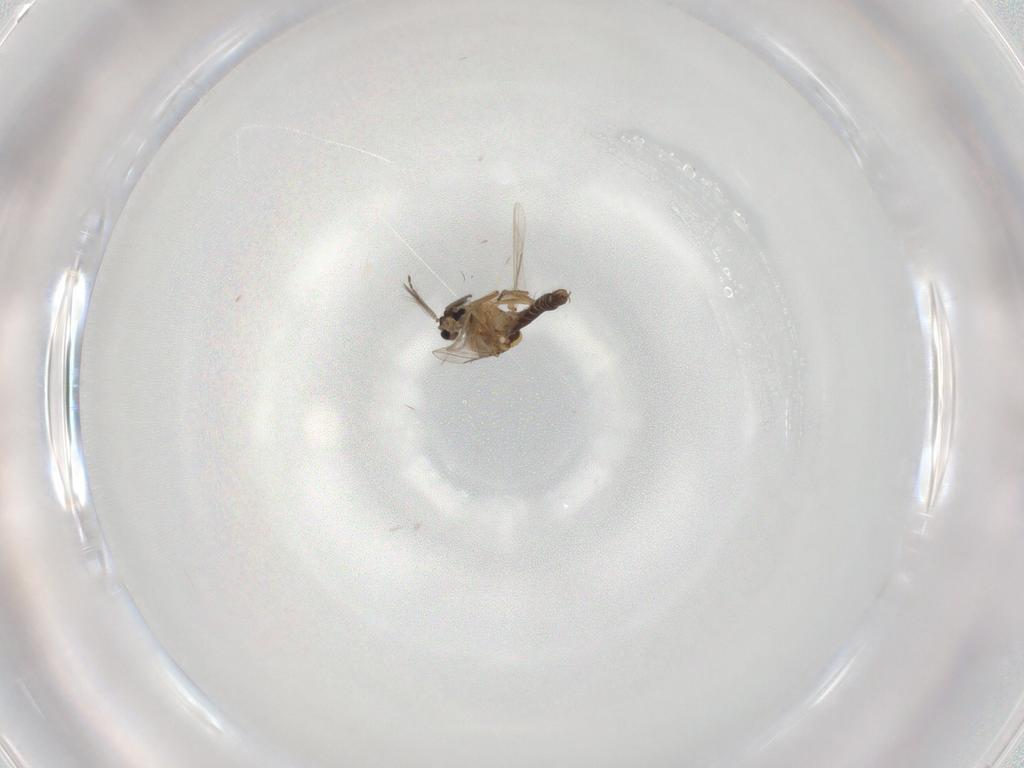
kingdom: Animalia
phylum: Arthropoda
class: Insecta
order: Diptera
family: Ceratopogonidae
